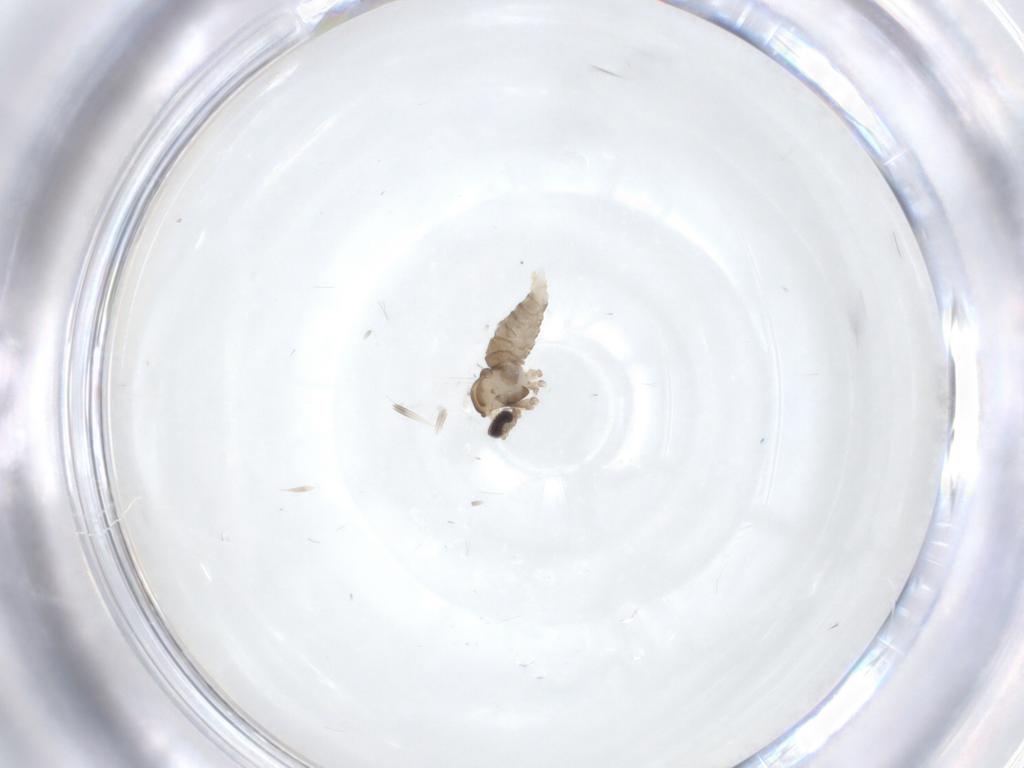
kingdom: Animalia
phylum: Arthropoda
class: Insecta
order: Diptera
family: Cecidomyiidae
